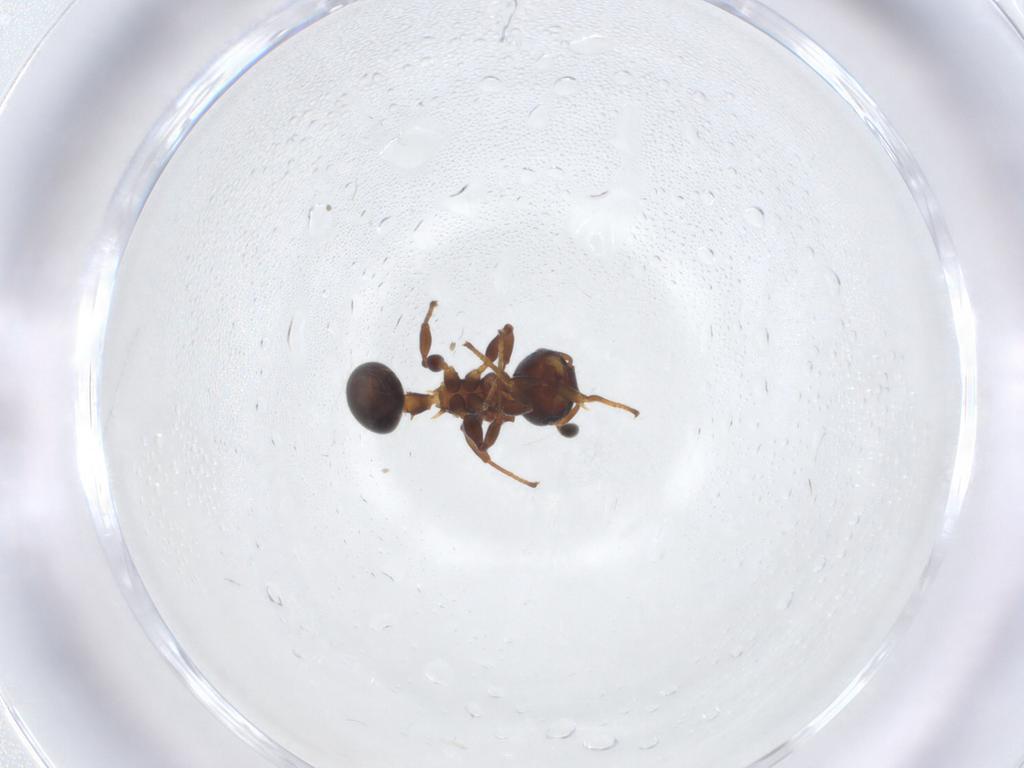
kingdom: Animalia
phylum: Arthropoda
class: Insecta
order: Hymenoptera
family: Formicidae
